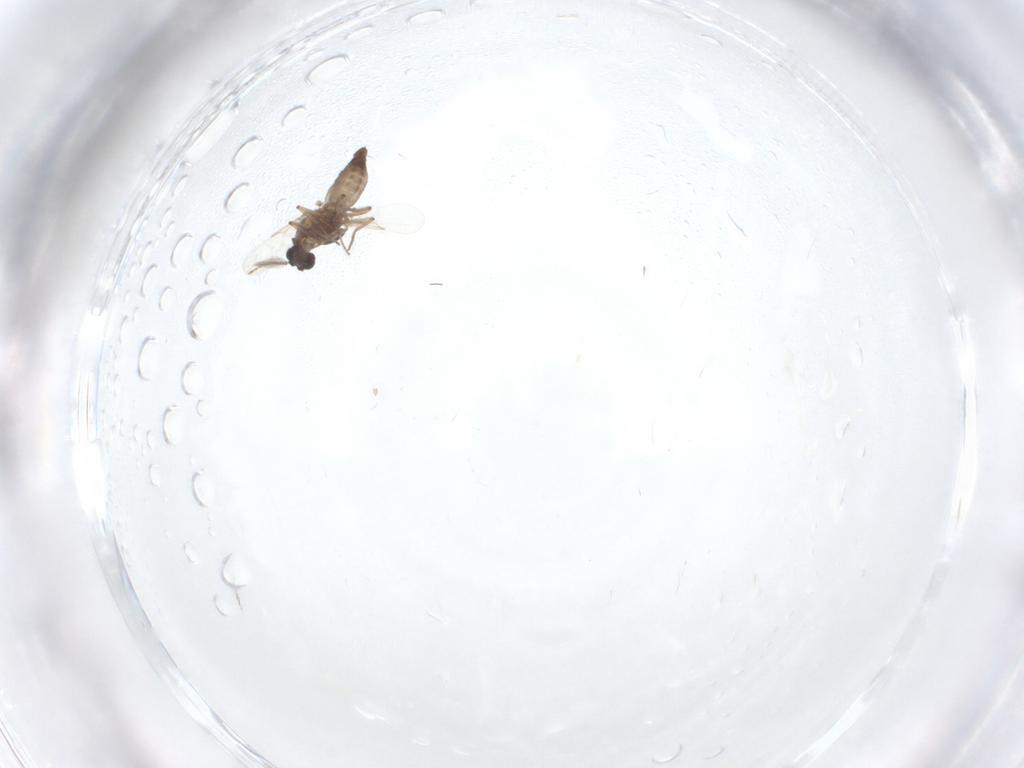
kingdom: Animalia
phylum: Arthropoda
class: Insecta
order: Diptera
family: Ceratopogonidae
